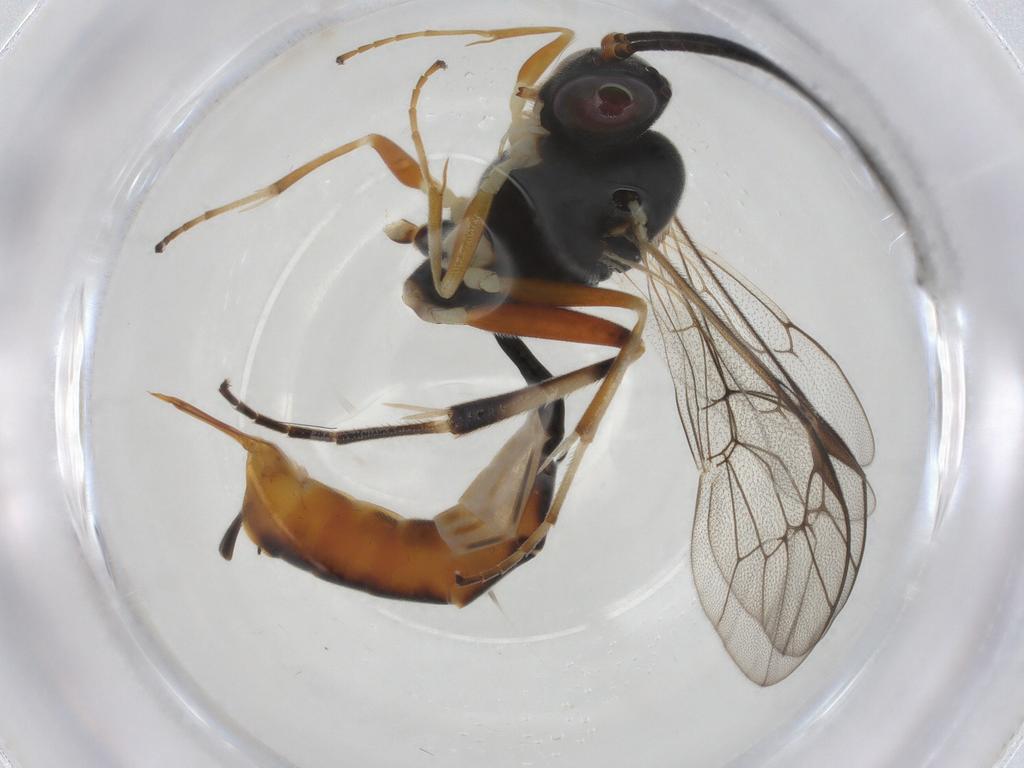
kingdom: Animalia
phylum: Arthropoda
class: Insecta
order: Hymenoptera
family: Ichneumonidae
